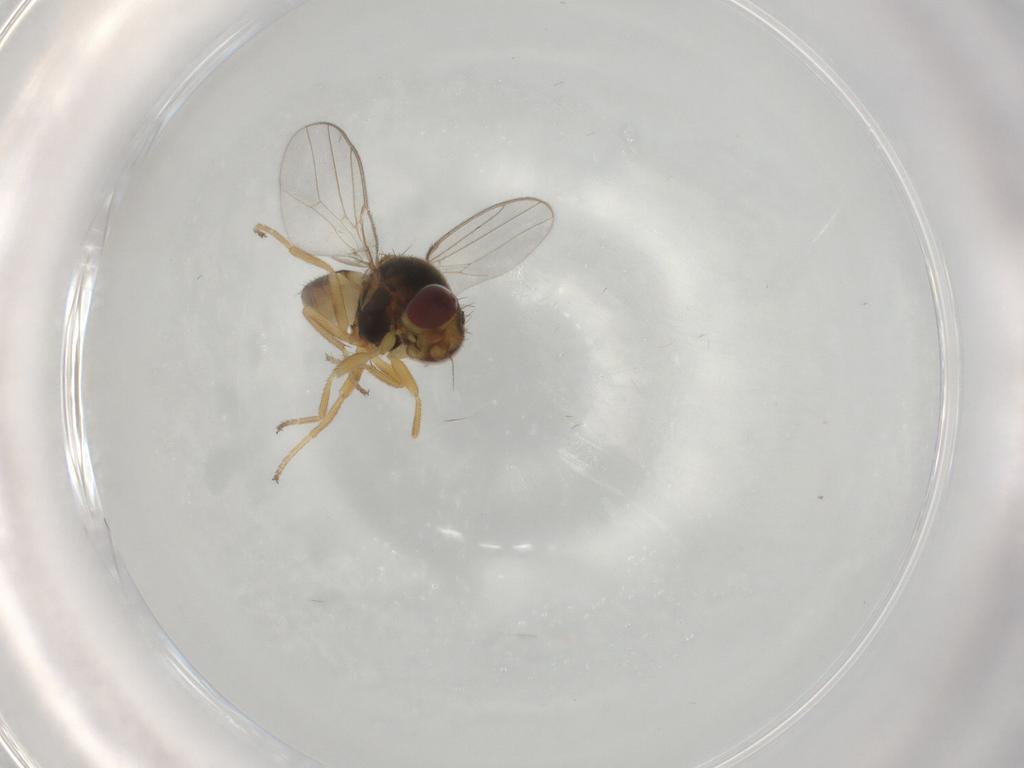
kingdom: Animalia
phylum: Arthropoda
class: Insecta
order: Diptera
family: Chloropidae
